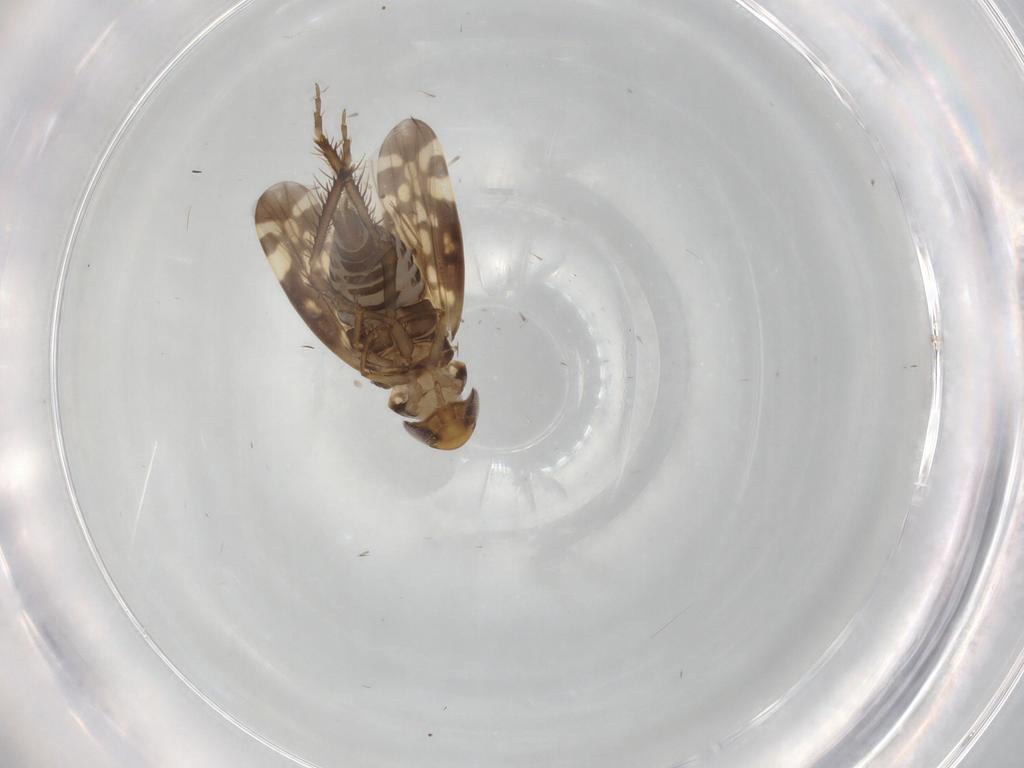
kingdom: Animalia
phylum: Arthropoda
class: Insecta
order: Hemiptera
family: Cicadellidae
